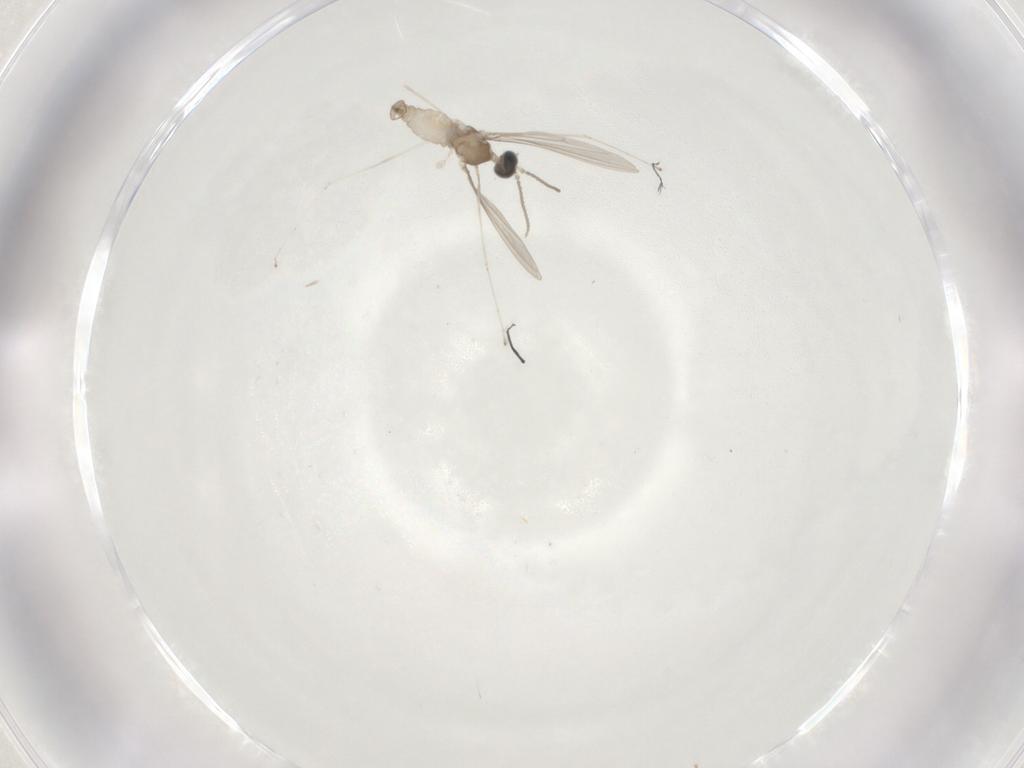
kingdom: Animalia
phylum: Arthropoda
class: Insecta
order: Diptera
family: Cecidomyiidae
